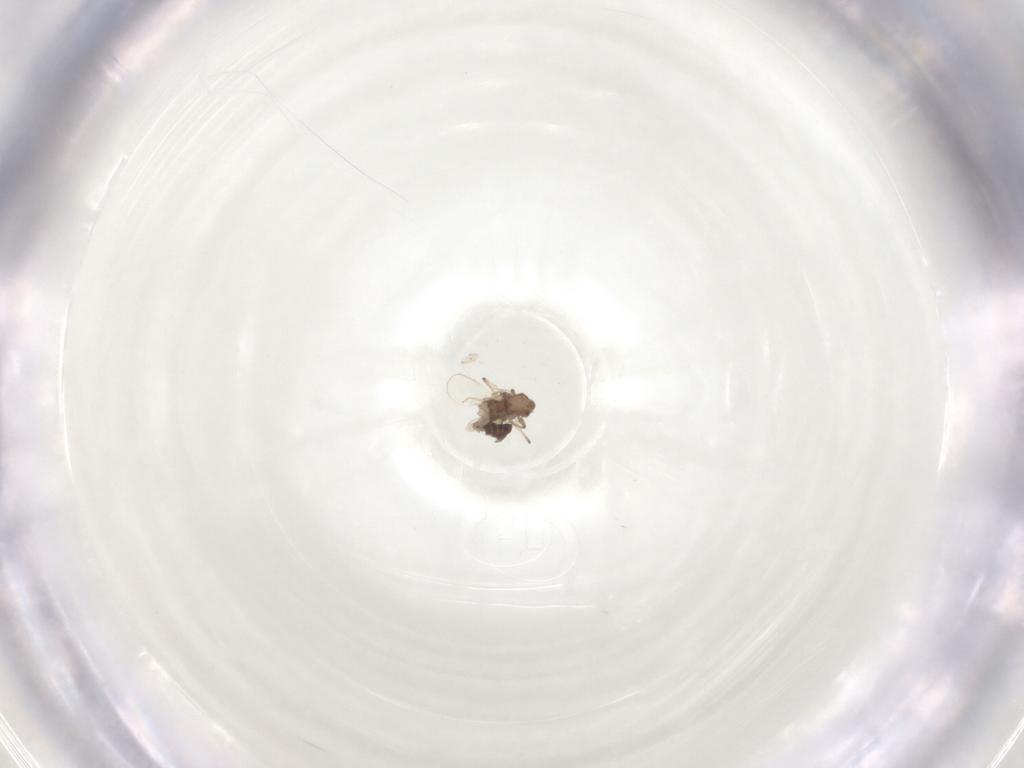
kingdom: Animalia
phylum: Arthropoda
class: Insecta
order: Diptera
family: Chironomidae
